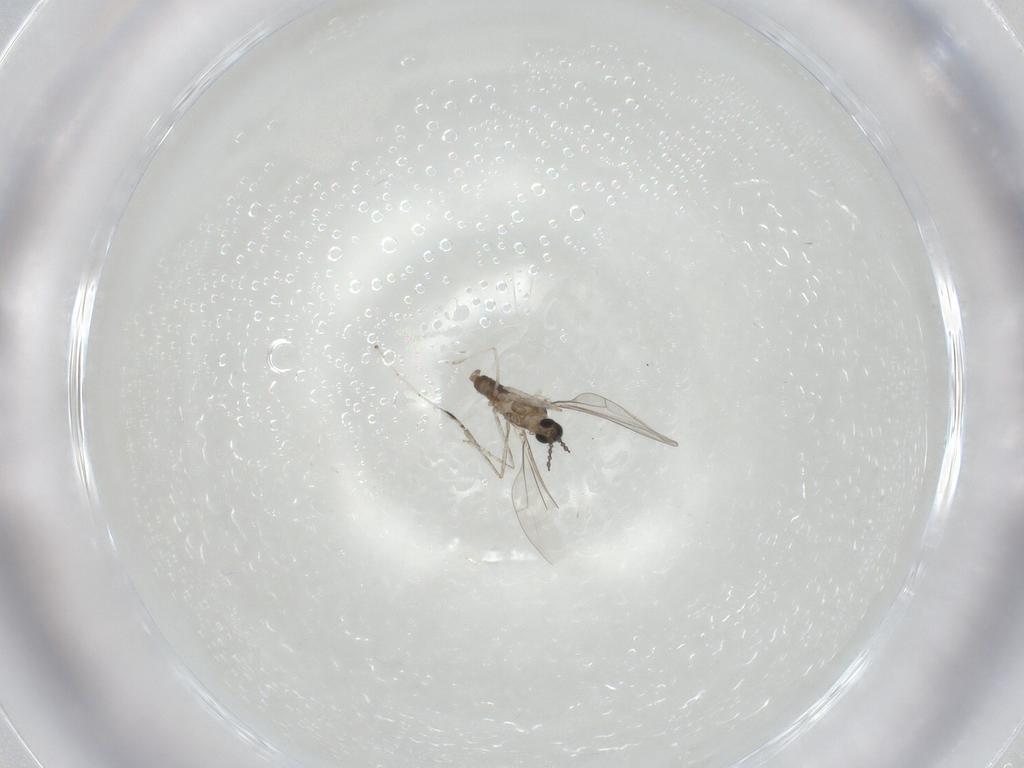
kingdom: Animalia
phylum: Arthropoda
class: Insecta
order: Diptera
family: Cecidomyiidae
